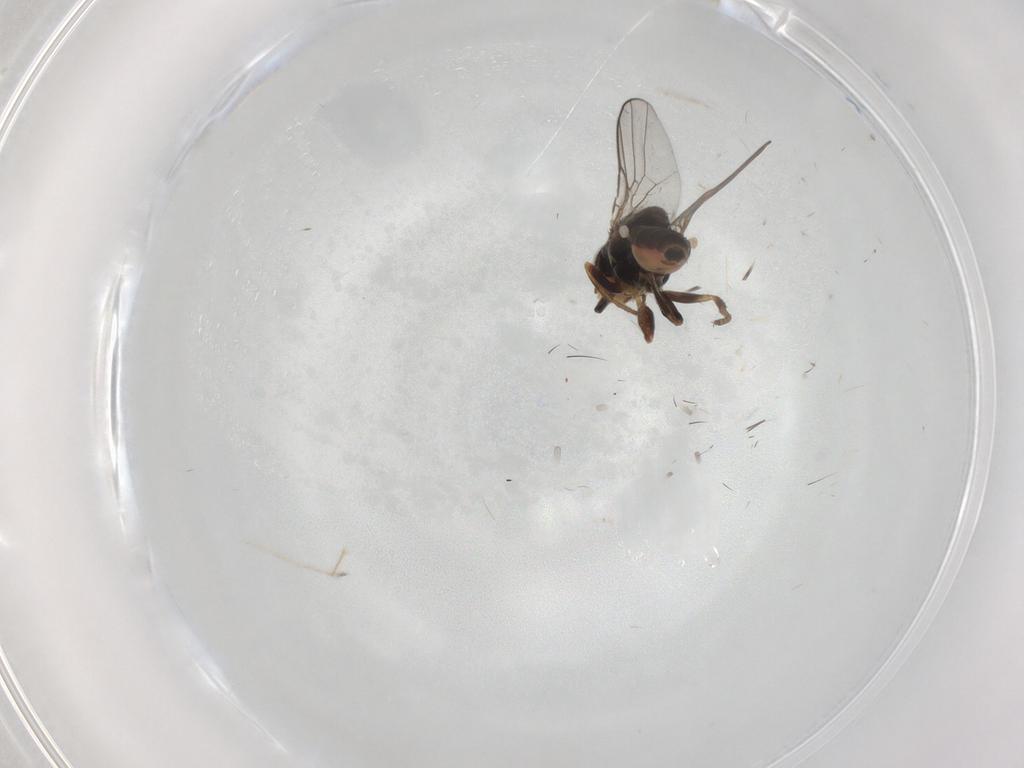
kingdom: Animalia
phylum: Arthropoda
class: Insecta
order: Diptera
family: Chloropidae
